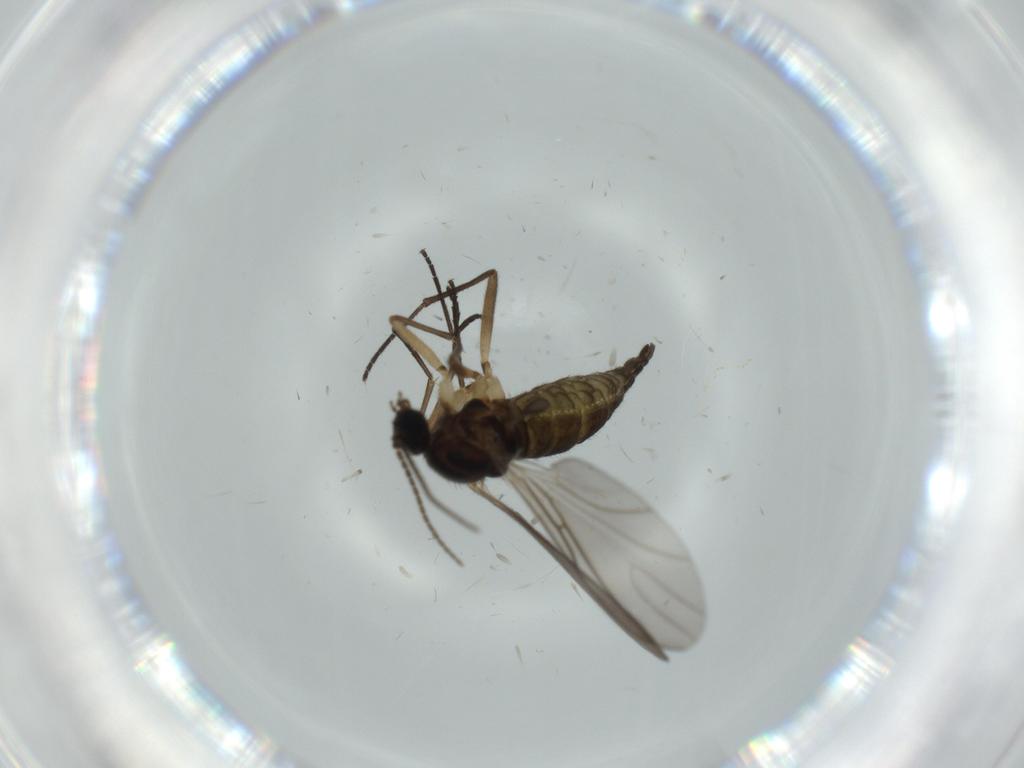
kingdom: Animalia
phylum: Arthropoda
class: Insecta
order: Diptera
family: Sciaridae
